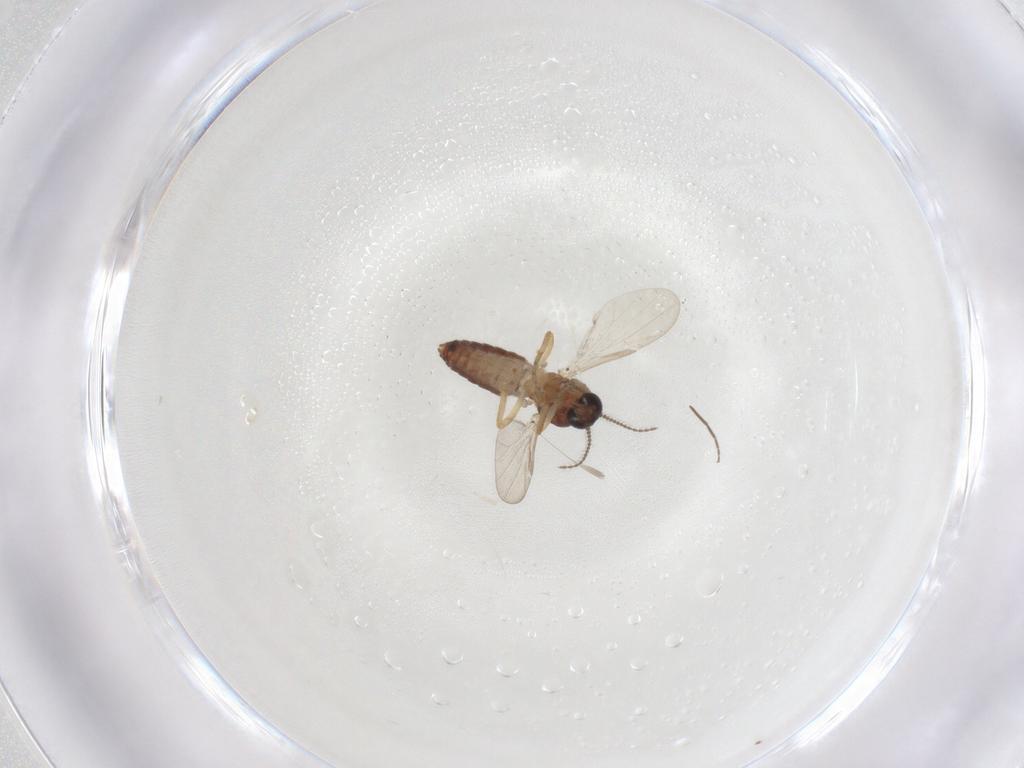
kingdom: Animalia
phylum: Arthropoda
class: Insecta
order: Diptera
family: Ceratopogonidae
